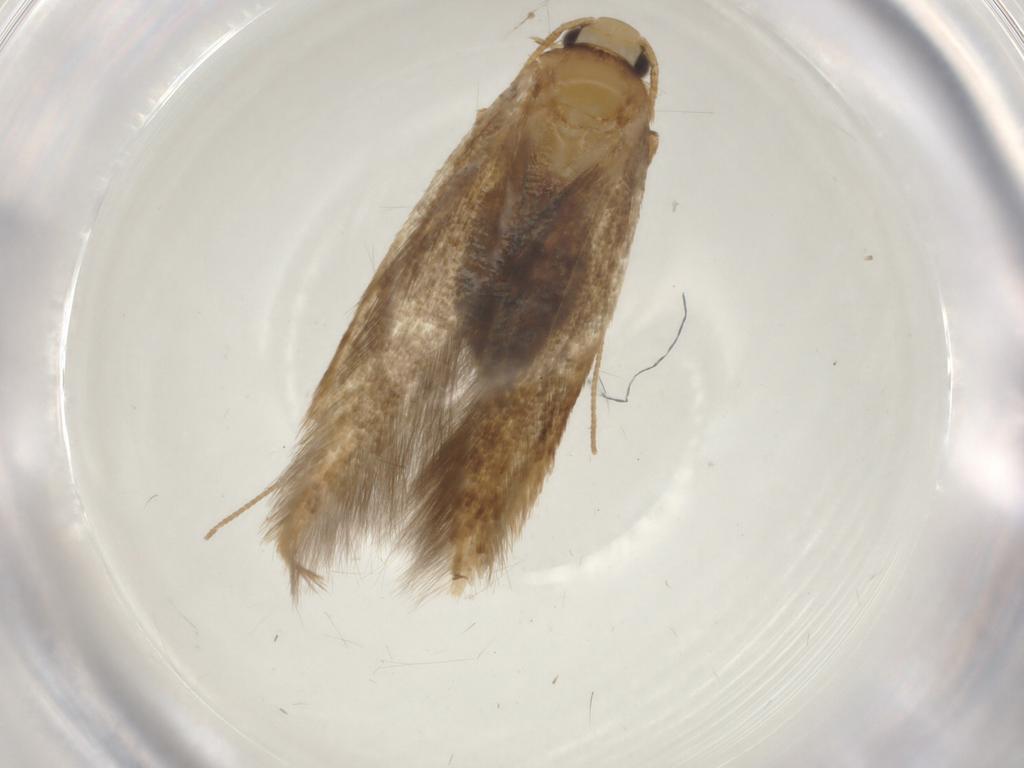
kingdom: Animalia
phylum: Arthropoda
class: Insecta
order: Lepidoptera
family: Tineidae
